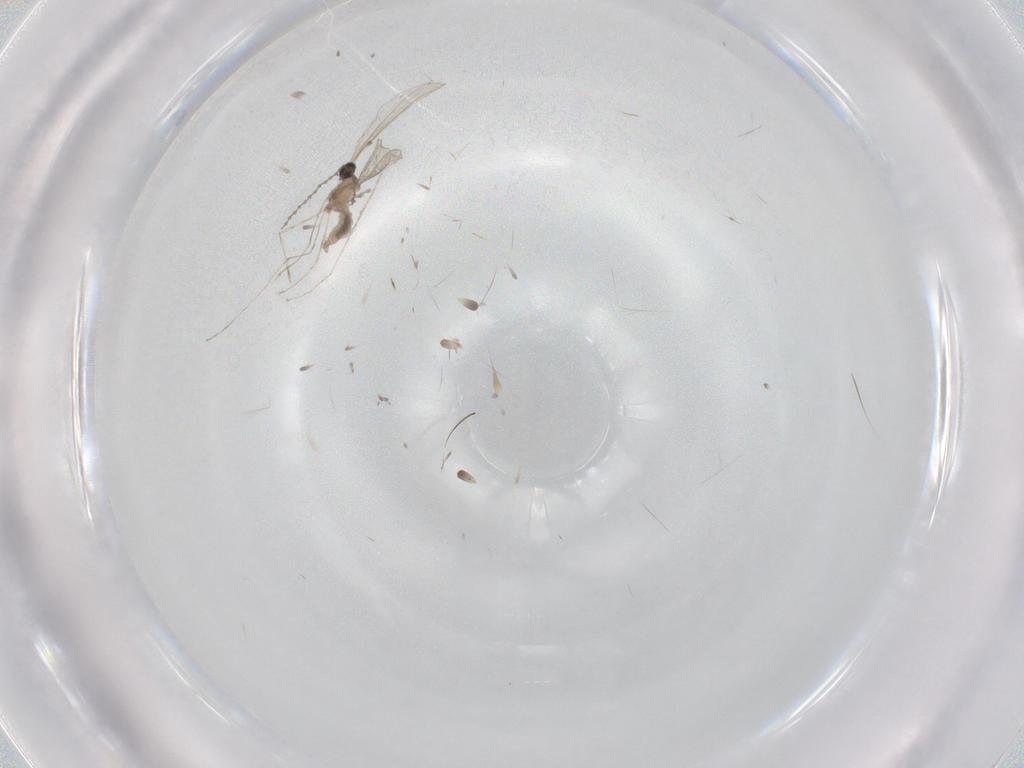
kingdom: Animalia
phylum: Arthropoda
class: Insecta
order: Diptera
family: Cecidomyiidae
